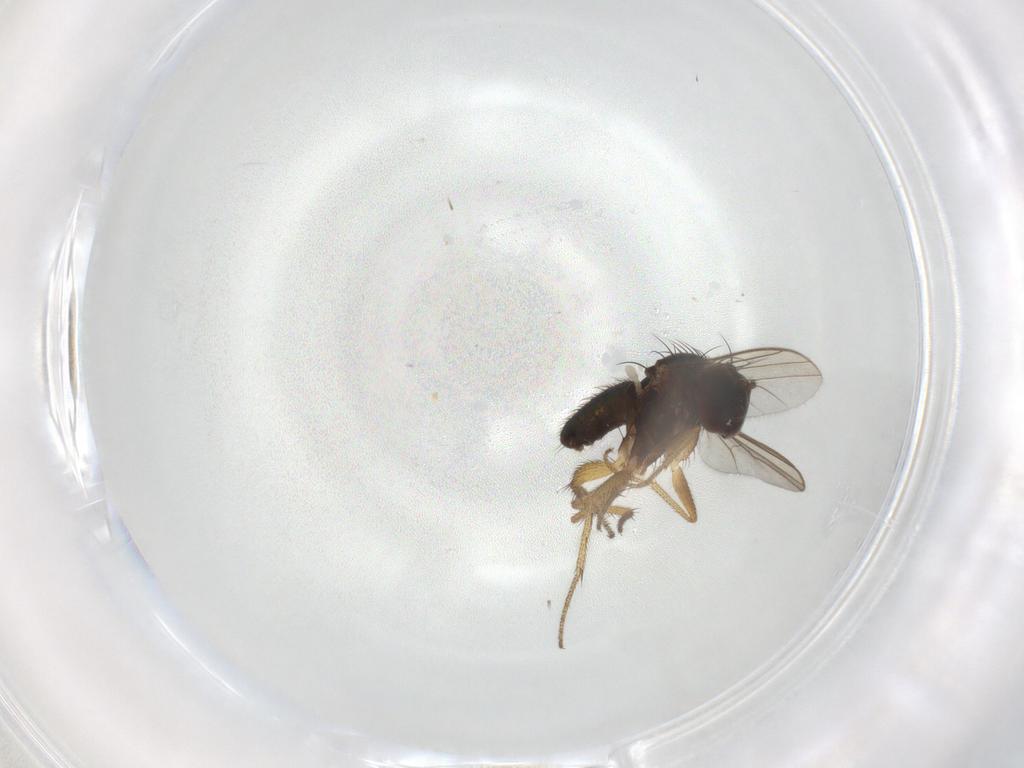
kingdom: Animalia
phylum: Arthropoda
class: Insecta
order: Diptera
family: Dolichopodidae
